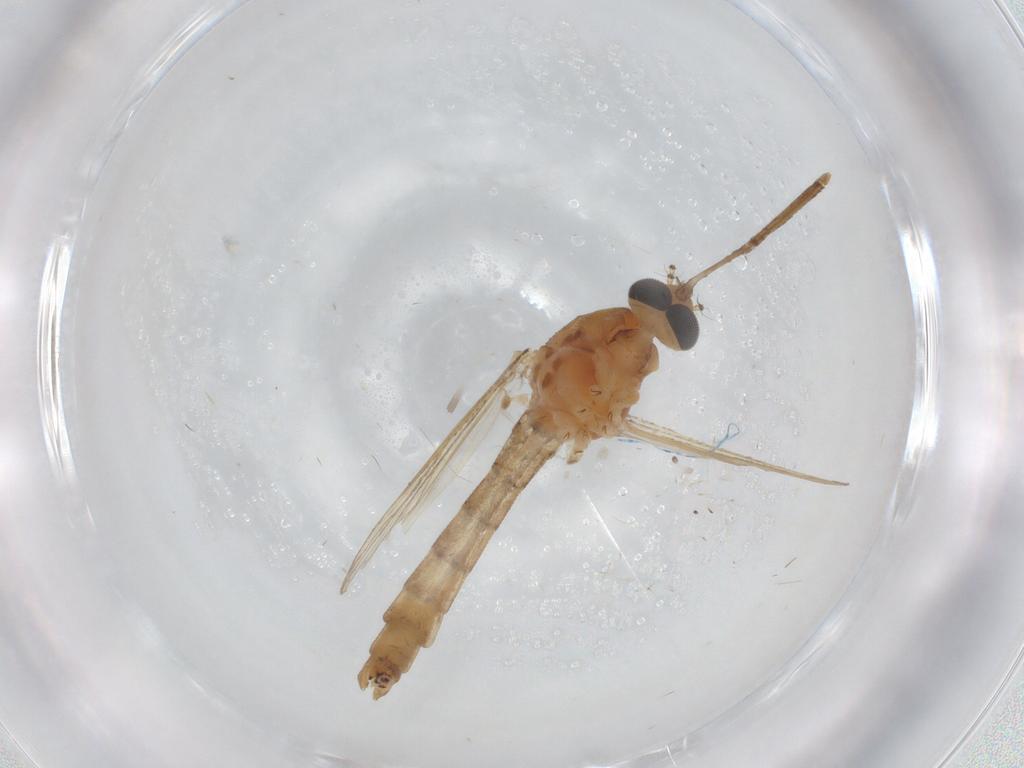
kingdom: Animalia
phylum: Arthropoda
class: Insecta
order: Diptera
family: Culicidae
